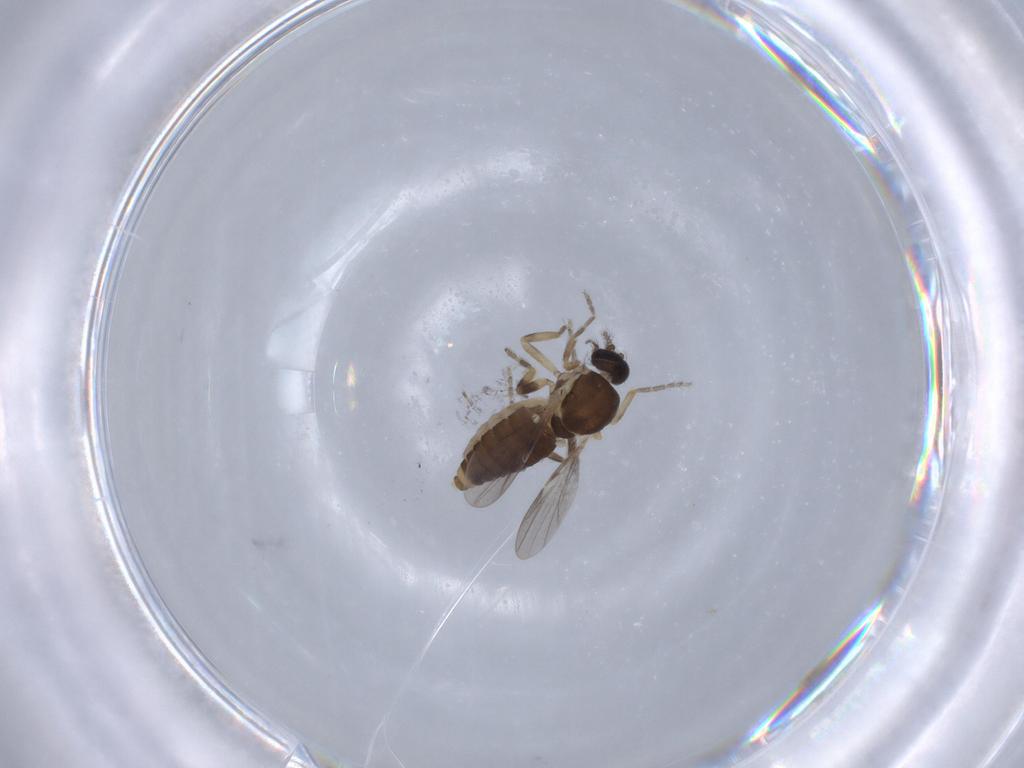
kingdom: Animalia
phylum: Arthropoda
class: Insecta
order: Diptera
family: Ceratopogonidae
